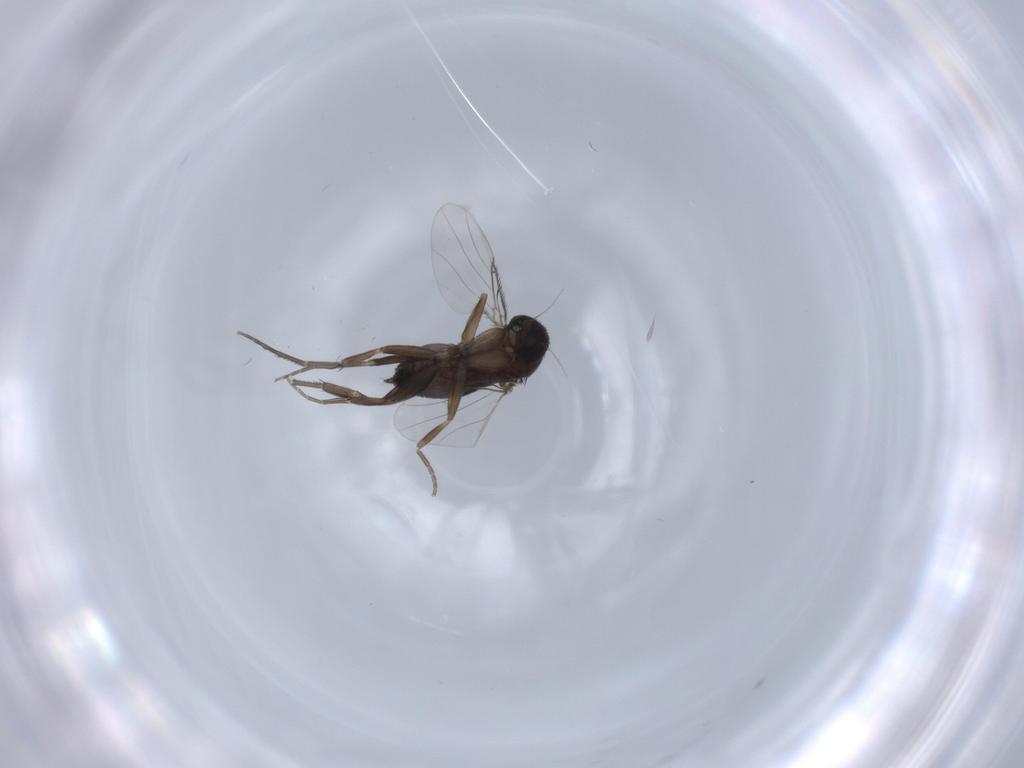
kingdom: Animalia
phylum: Arthropoda
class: Insecta
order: Diptera
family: Phoridae
